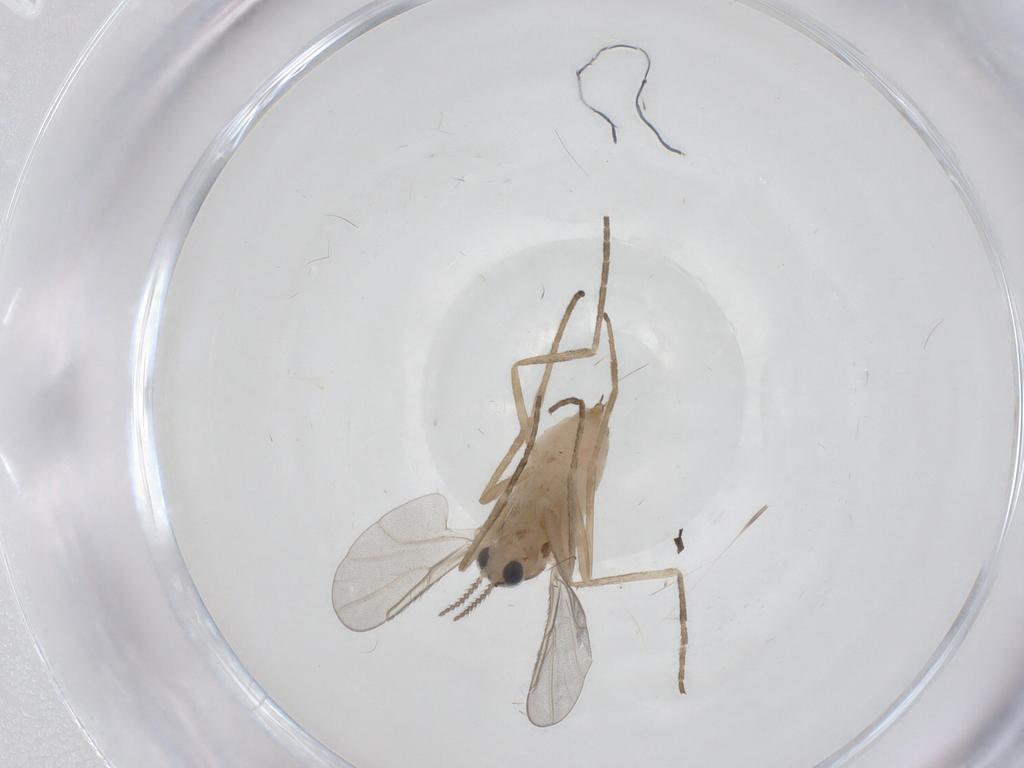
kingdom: Animalia
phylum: Arthropoda
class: Insecta
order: Diptera
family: Cecidomyiidae
